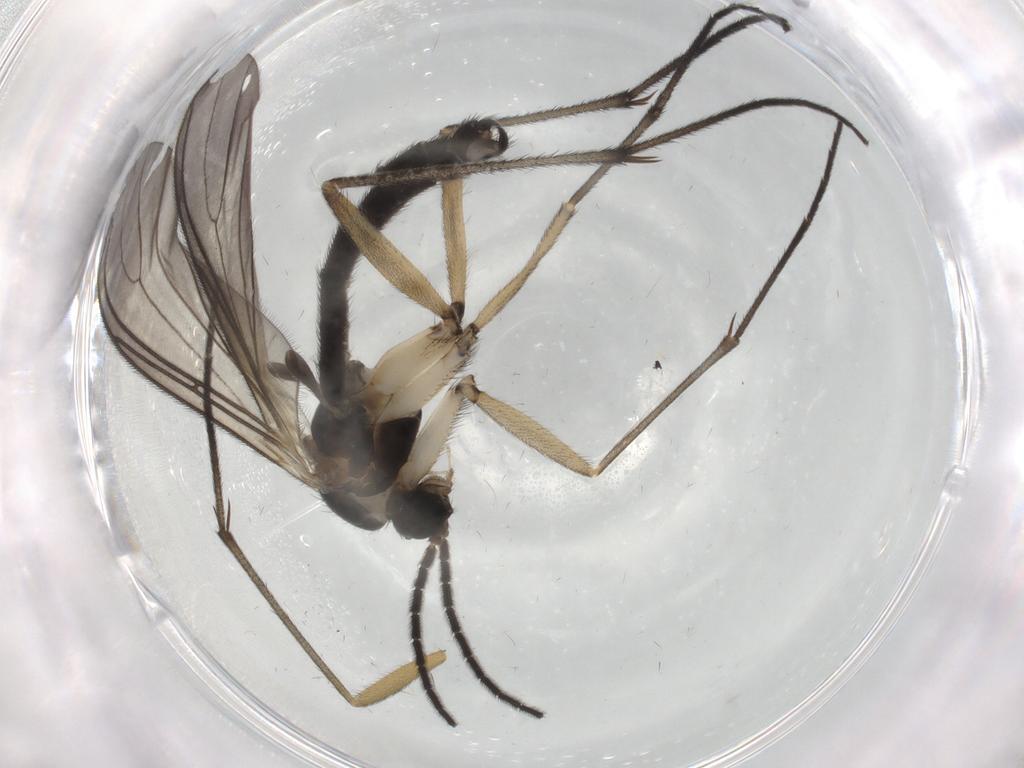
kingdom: Animalia
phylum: Arthropoda
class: Insecta
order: Diptera
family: Sciaridae
